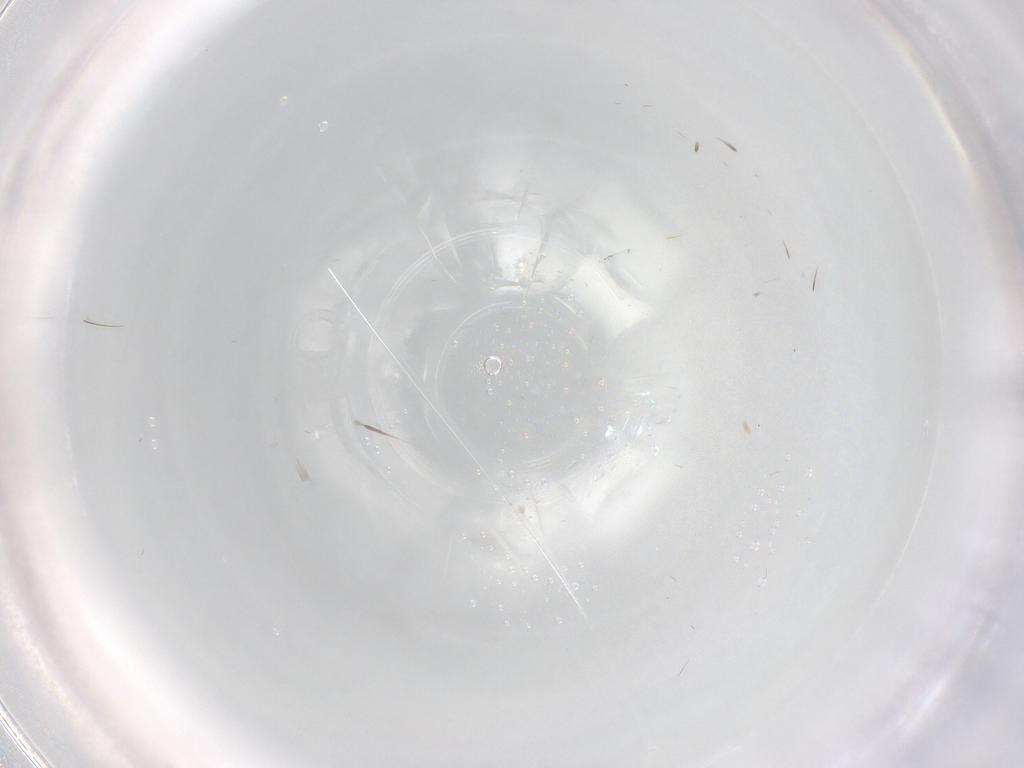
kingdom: Animalia
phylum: Arthropoda
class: Insecta
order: Diptera
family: Psychodidae
